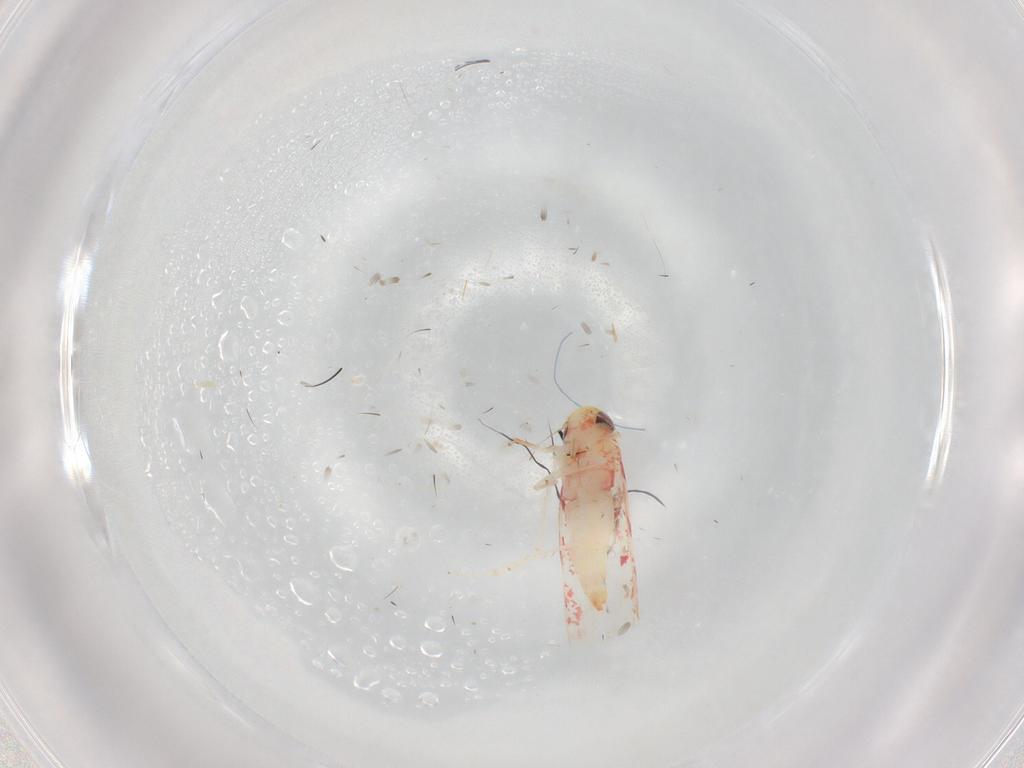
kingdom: Animalia
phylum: Arthropoda
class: Insecta
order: Hemiptera
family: Cicadellidae
